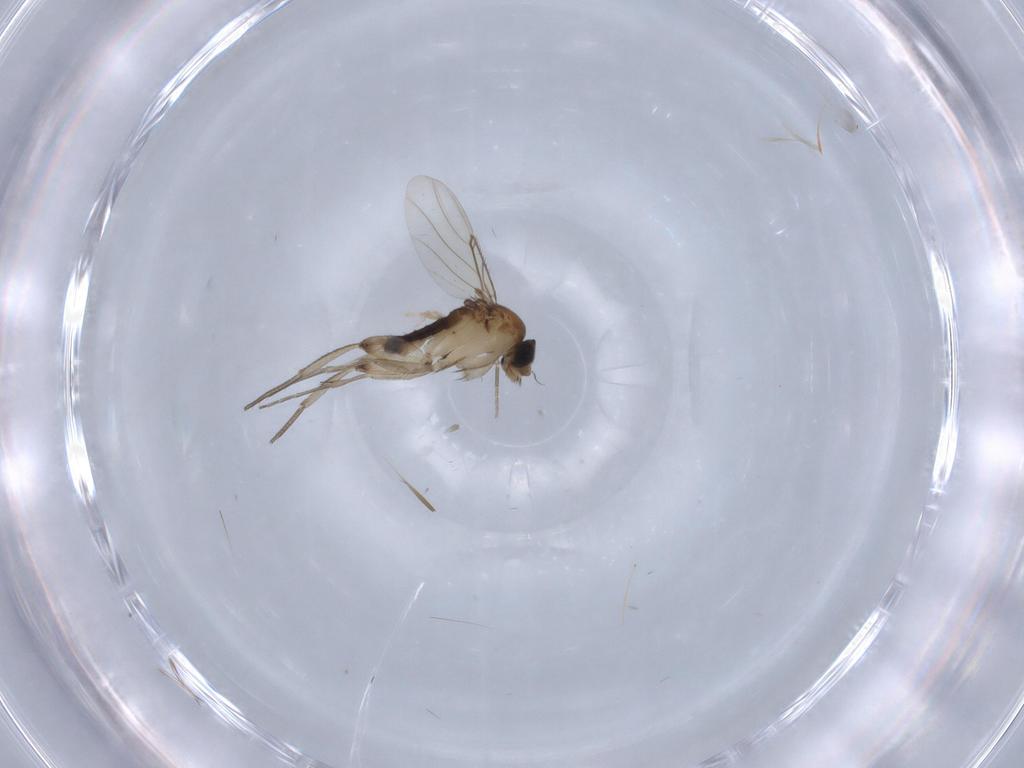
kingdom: Animalia
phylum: Arthropoda
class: Insecta
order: Diptera
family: Phoridae
